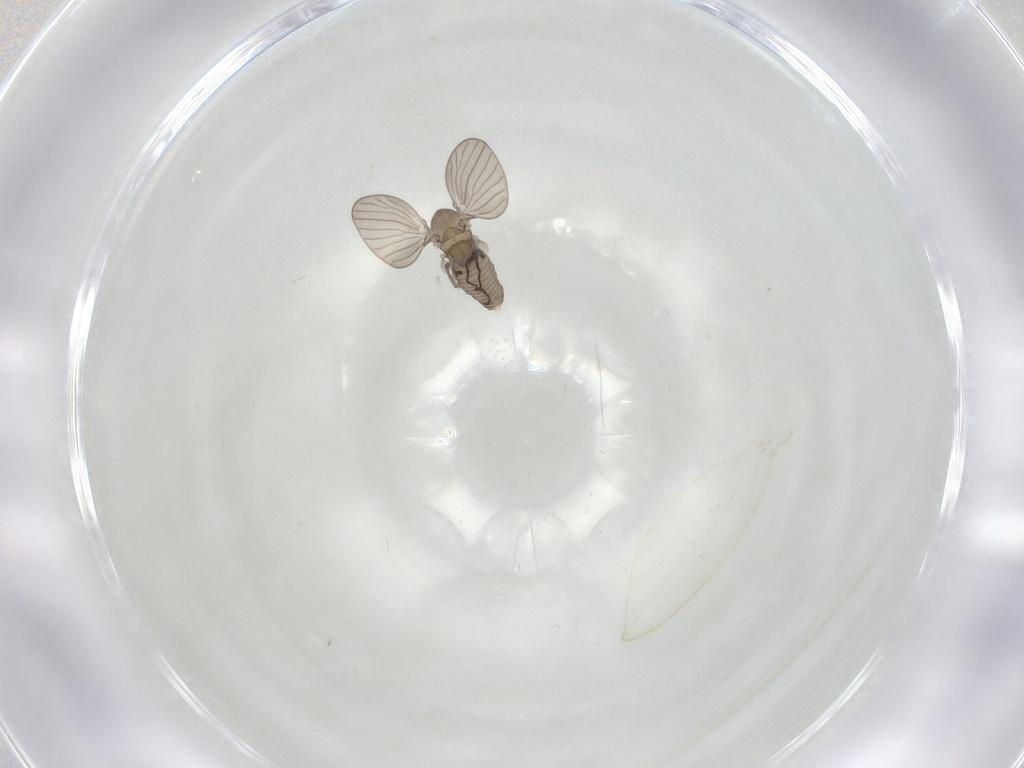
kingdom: Animalia
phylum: Arthropoda
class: Insecta
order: Diptera
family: Psychodidae
